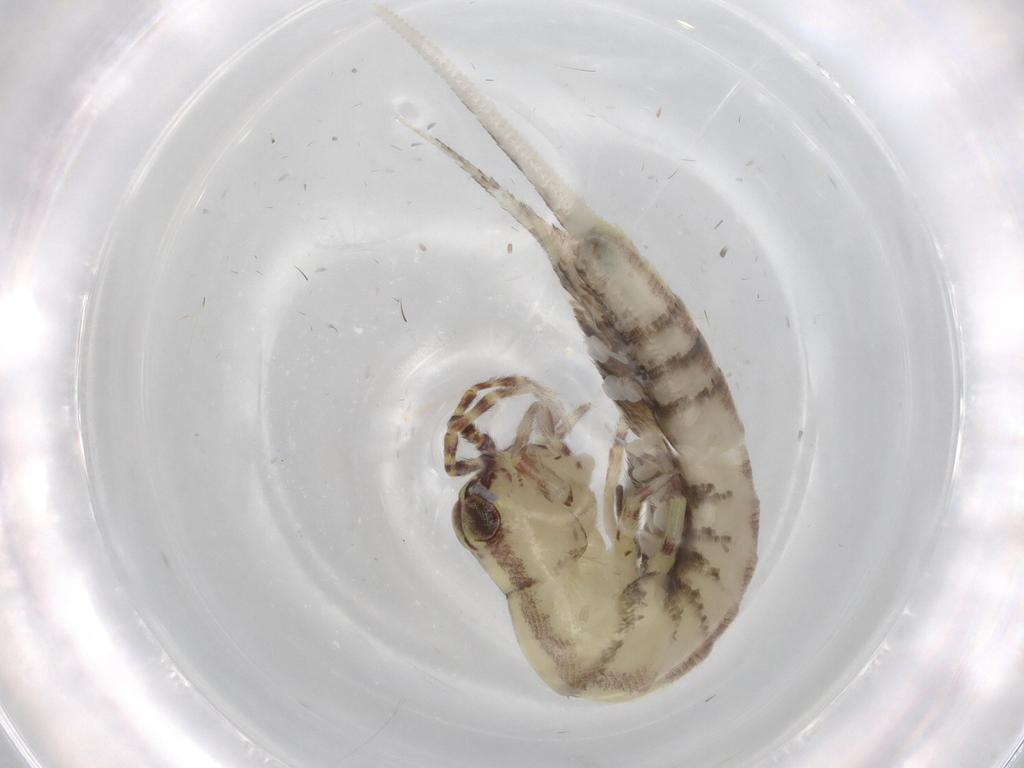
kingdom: Animalia
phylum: Arthropoda
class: Insecta
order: Archaeognatha
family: Machilidae
